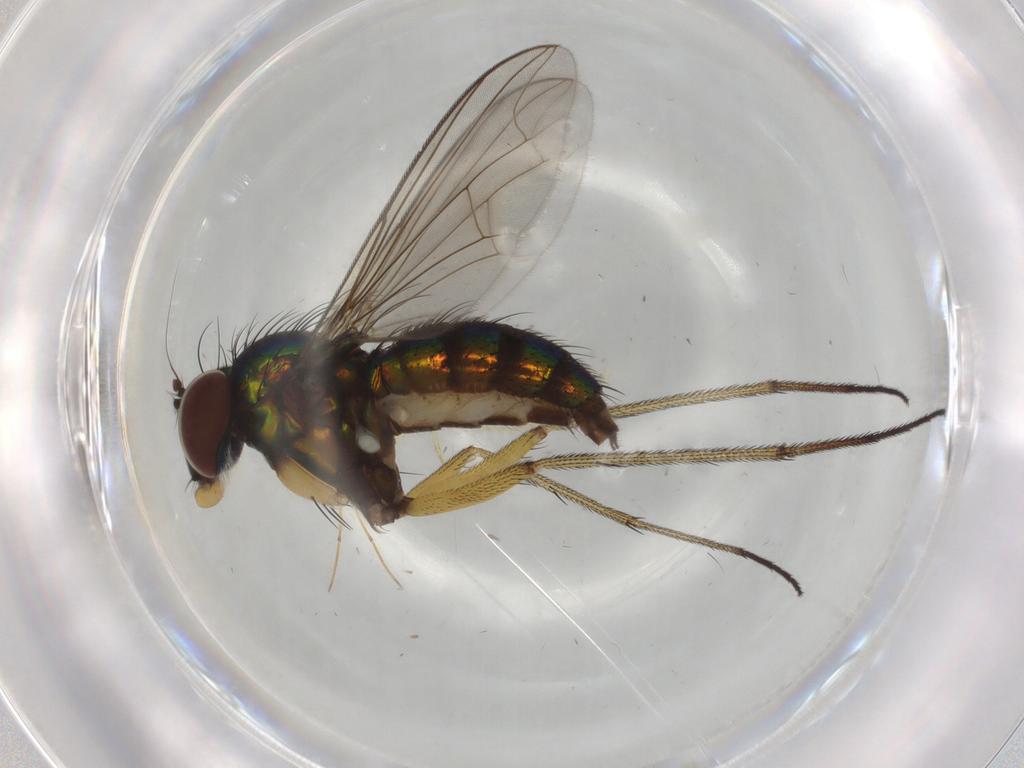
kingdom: Animalia
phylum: Arthropoda
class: Insecta
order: Diptera
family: Dolichopodidae
